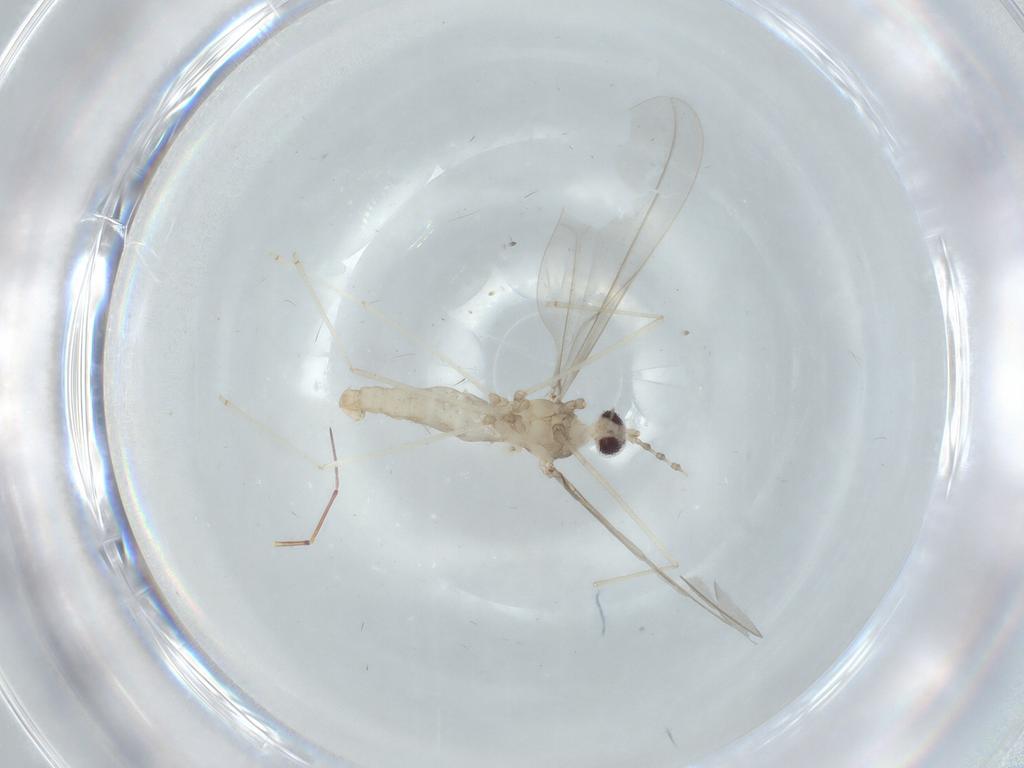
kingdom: Animalia
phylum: Arthropoda
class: Insecta
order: Diptera
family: Cecidomyiidae
